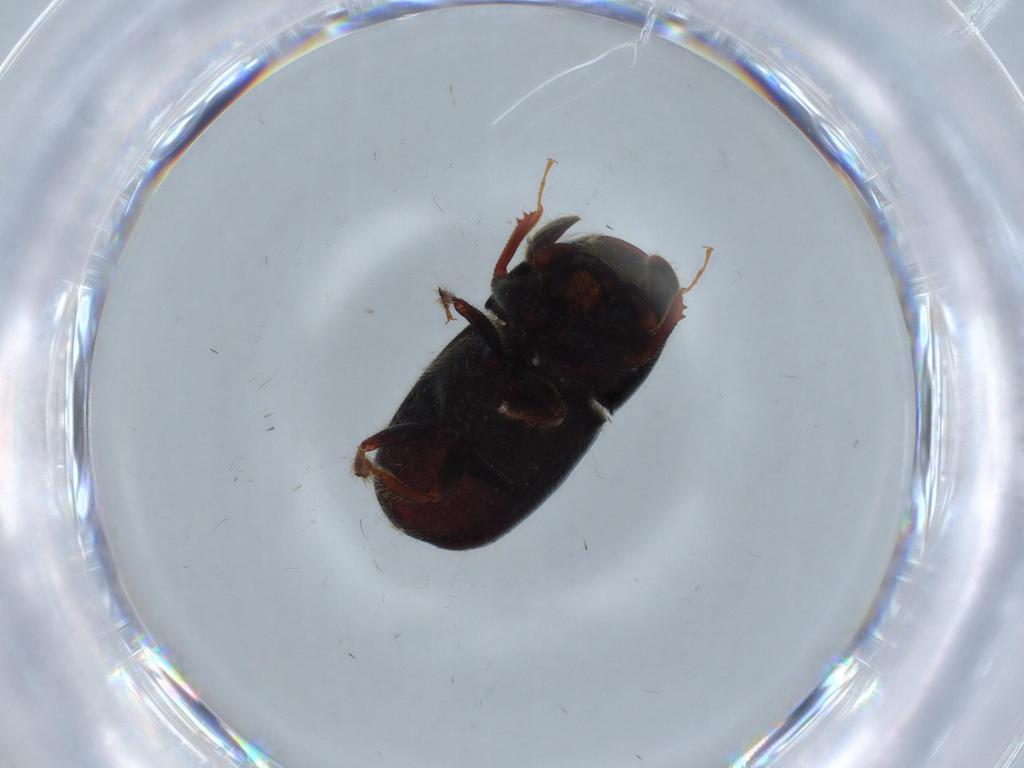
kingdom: Animalia
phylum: Arthropoda
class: Insecta
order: Coleoptera
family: Curculionidae
